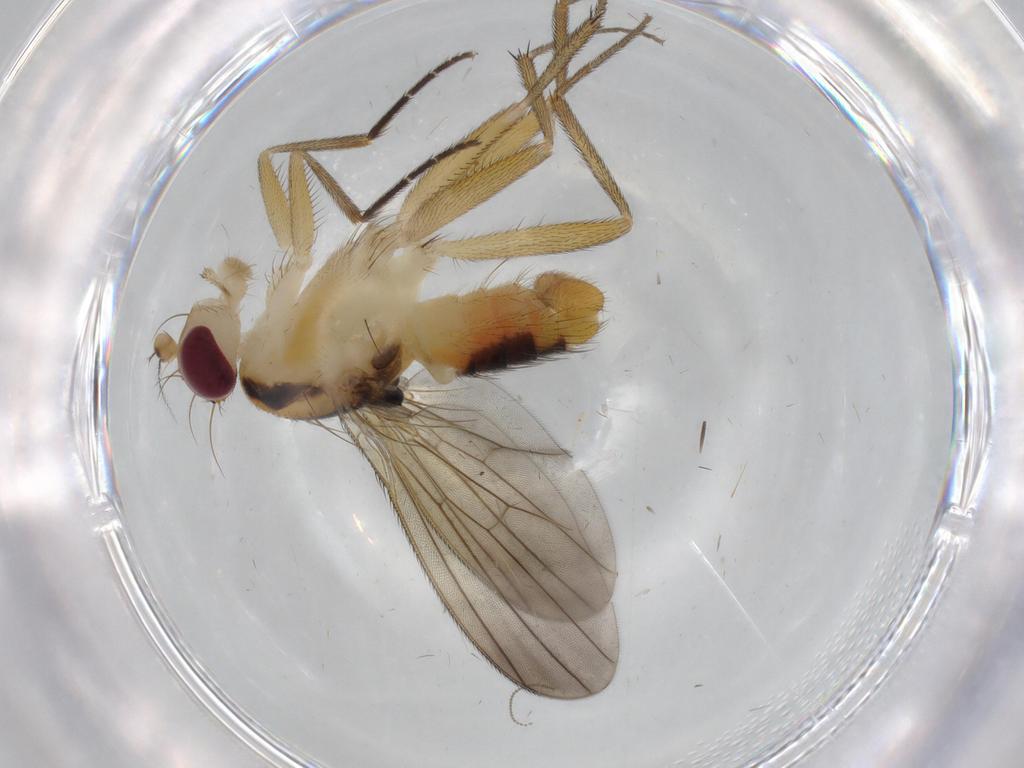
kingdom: Animalia
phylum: Arthropoda
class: Insecta
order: Diptera
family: Clusiidae
